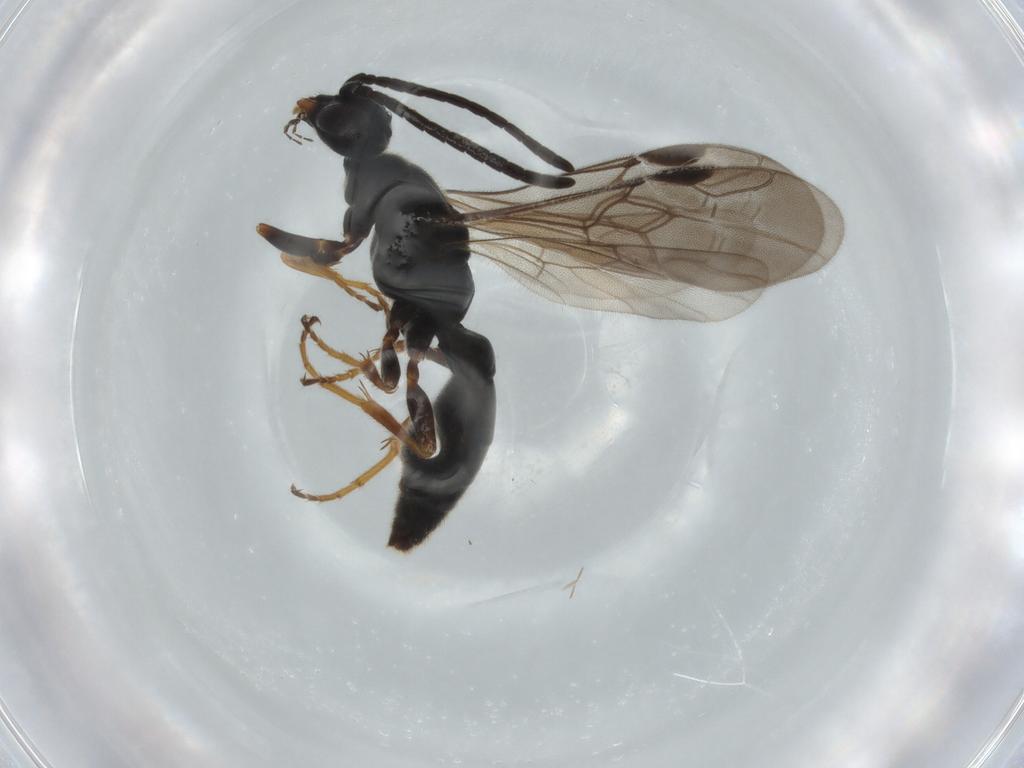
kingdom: Animalia
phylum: Arthropoda
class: Insecta
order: Hymenoptera
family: Sierolomorphidae
